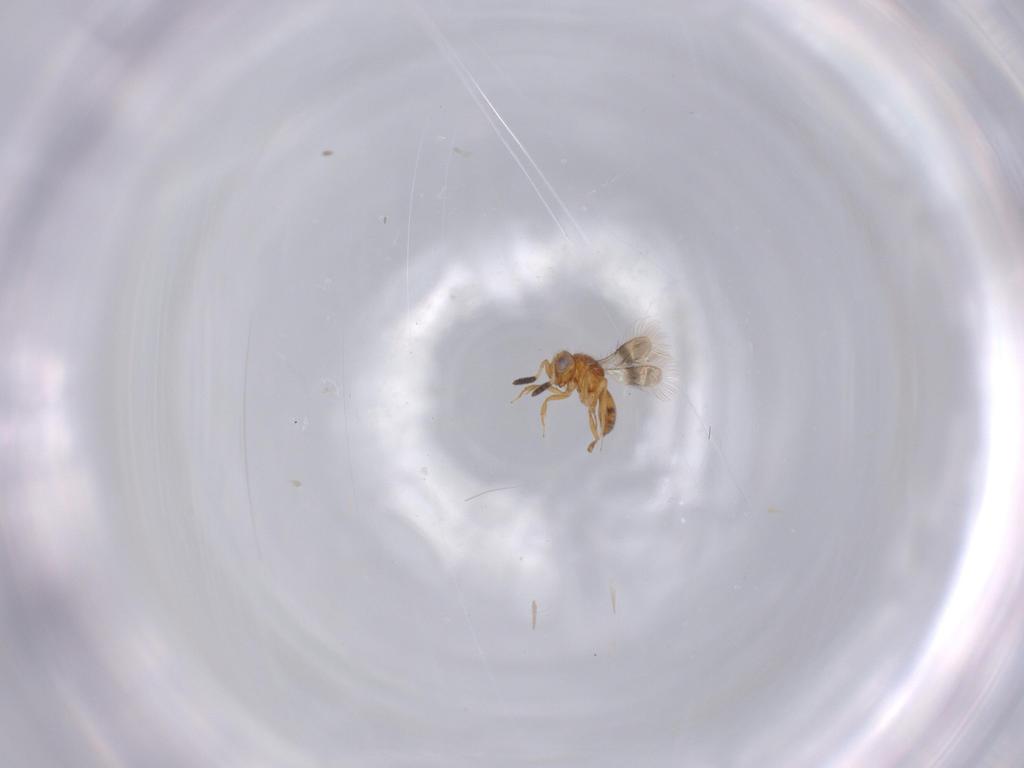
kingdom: Animalia
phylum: Arthropoda
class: Insecta
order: Hymenoptera
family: Scelionidae
